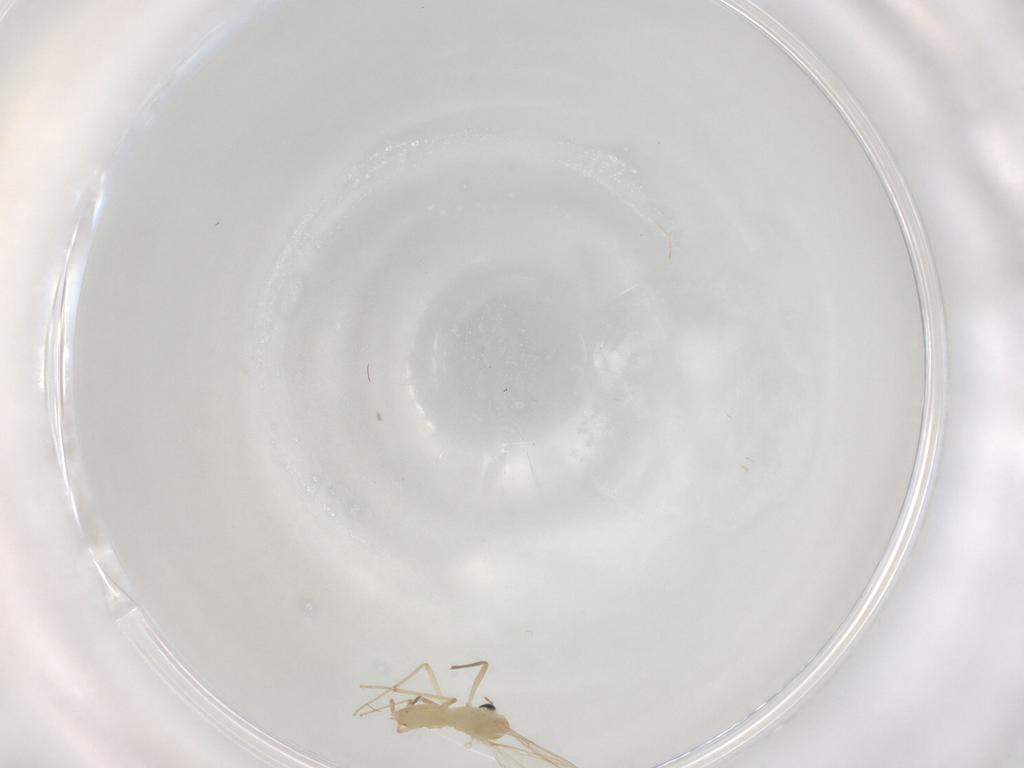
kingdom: Animalia
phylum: Arthropoda
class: Insecta
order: Diptera
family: Chironomidae
